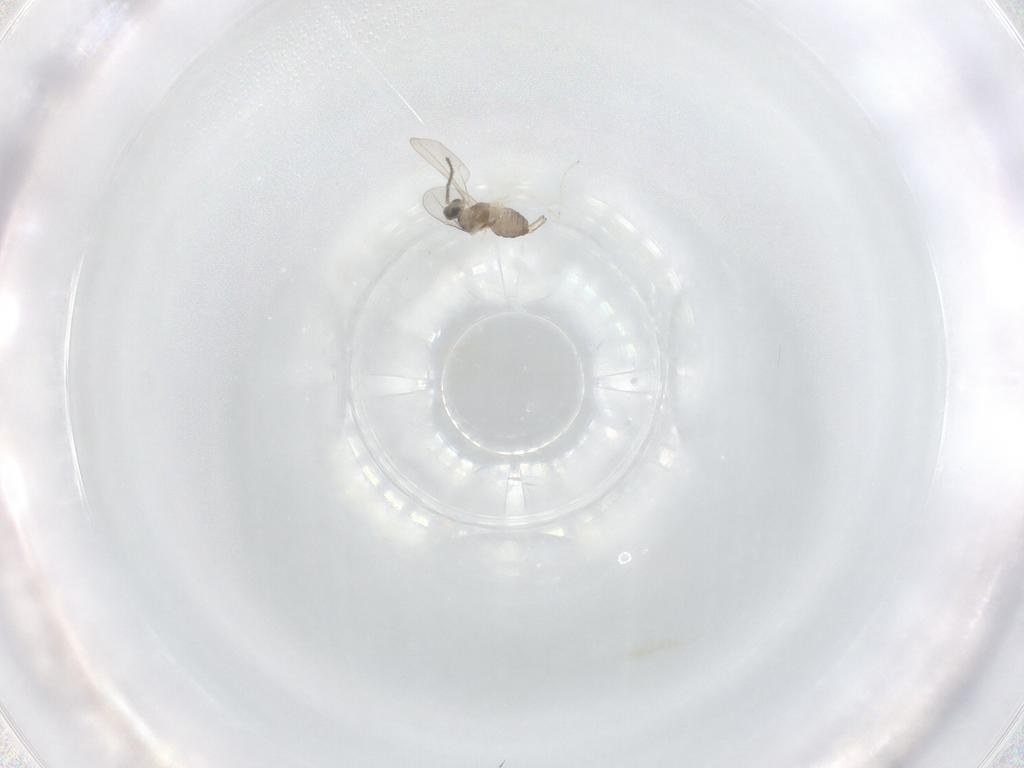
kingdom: Animalia
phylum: Arthropoda
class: Insecta
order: Diptera
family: Cecidomyiidae
